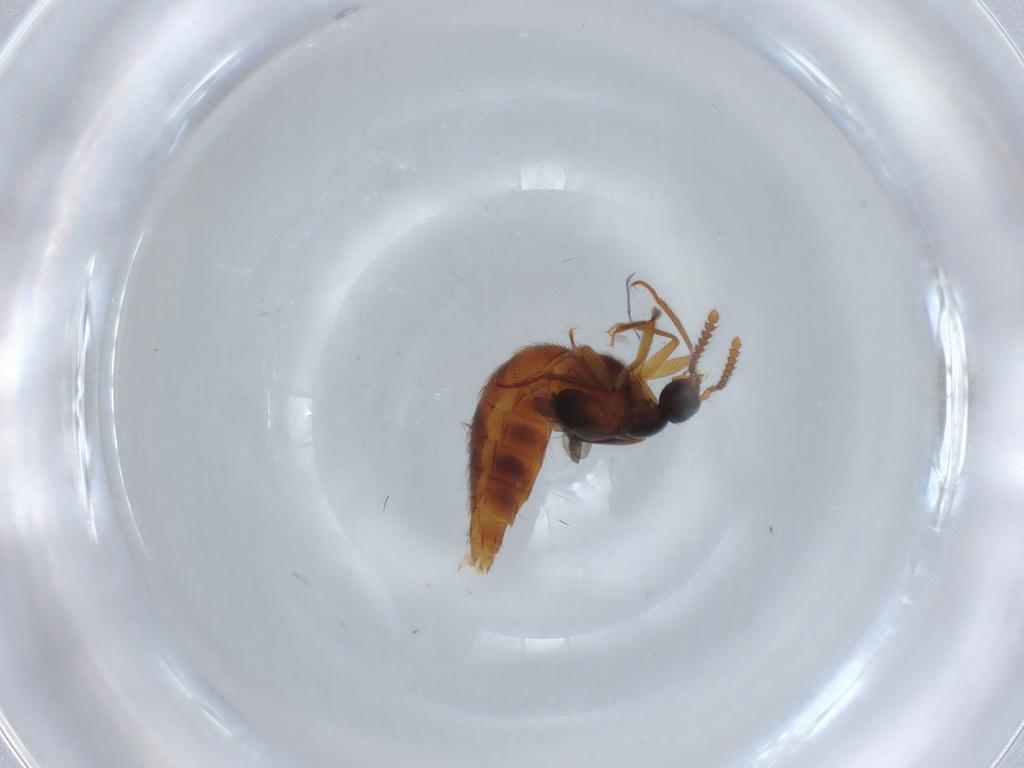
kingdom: Animalia
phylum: Arthropoda
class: Insecta
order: Coleoptera
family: Staphylinidae
